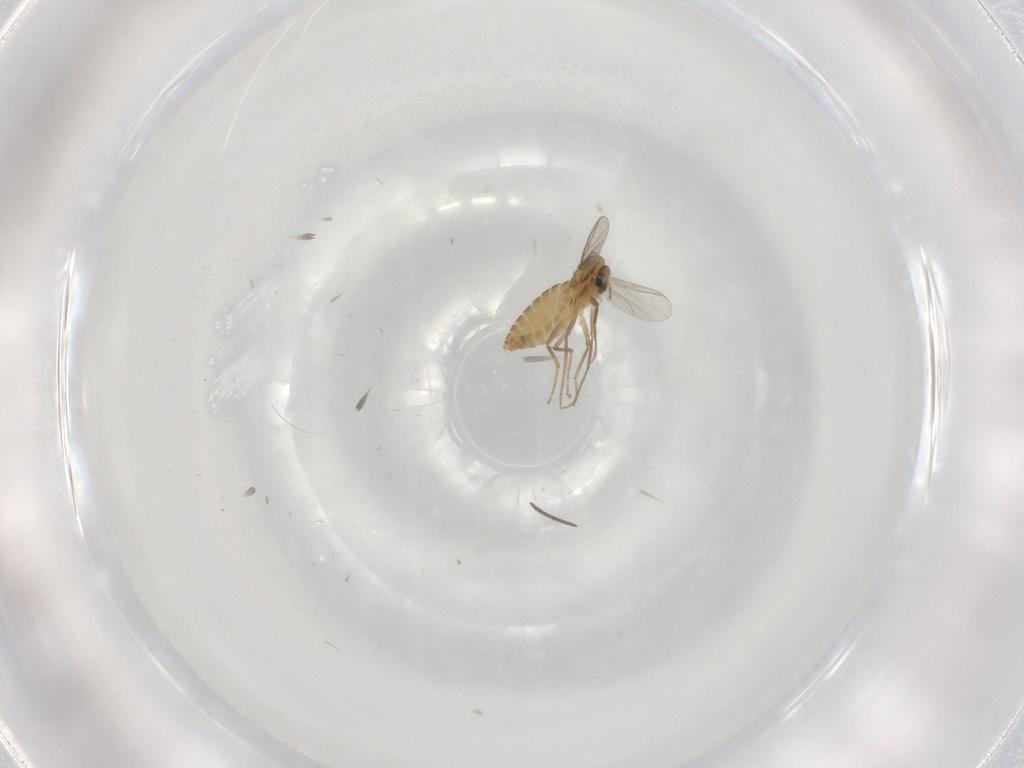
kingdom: Animalia
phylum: Arthropoda
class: Insecta
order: Diptera
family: Chironomidae
